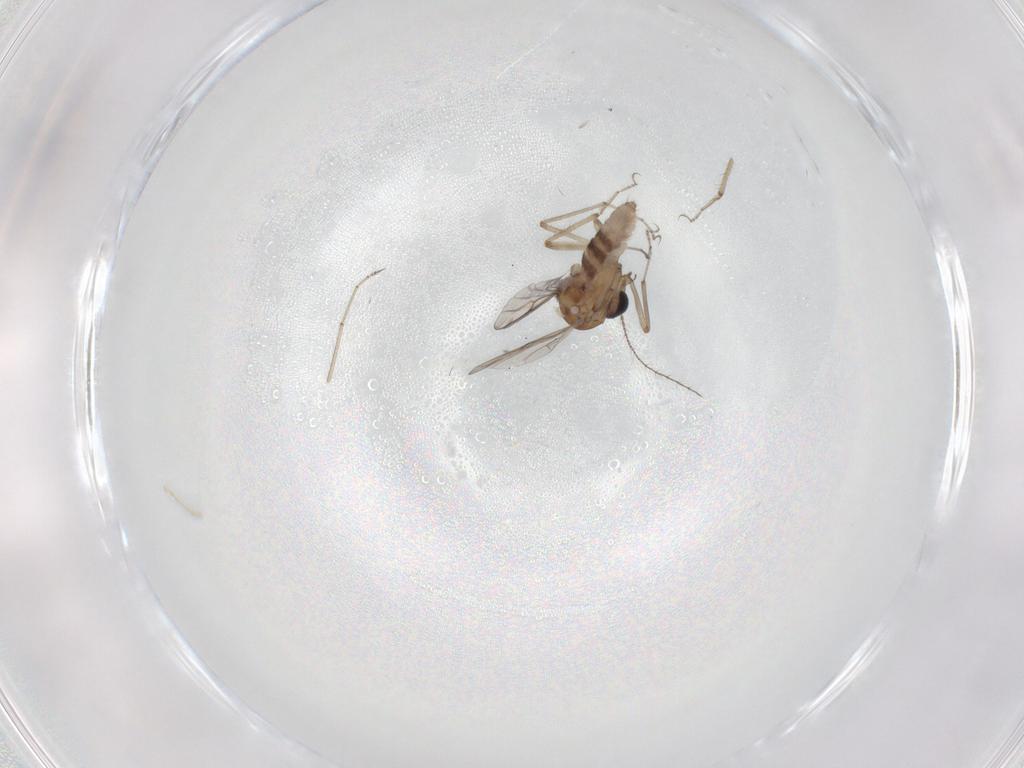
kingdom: Animalia
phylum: Arthropoda
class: Insecta
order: Diptera
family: Ceratopogonidae
